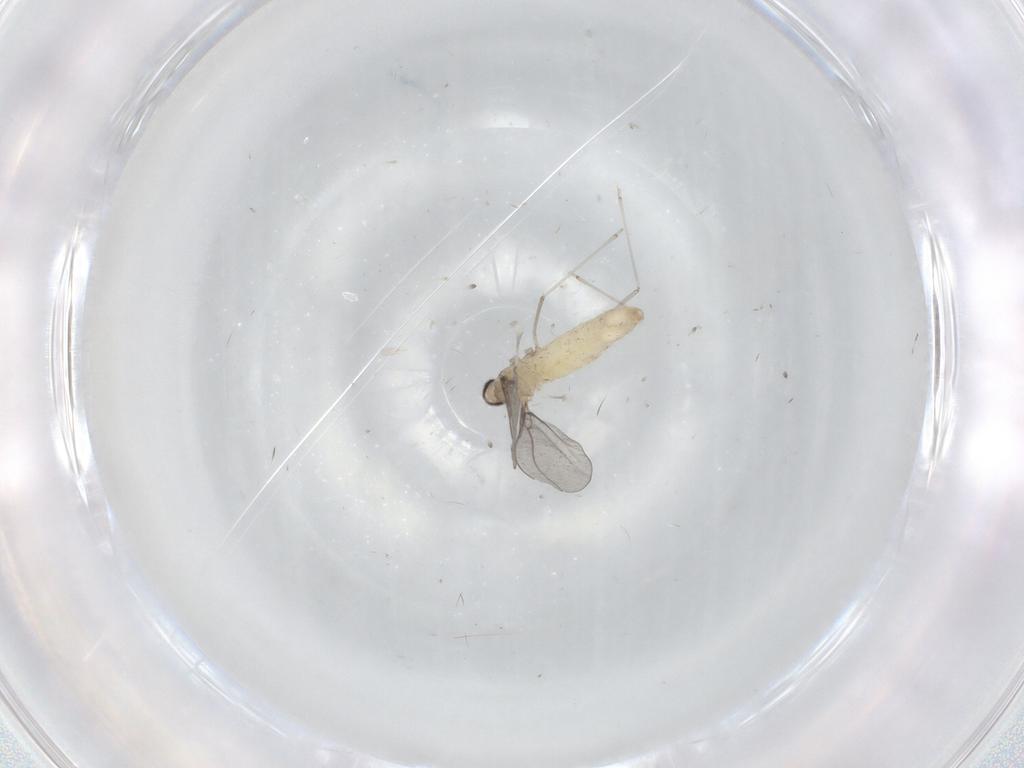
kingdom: Animalia
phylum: Arthropoda
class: Insecta
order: Diptera
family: Cecidomyiidae
